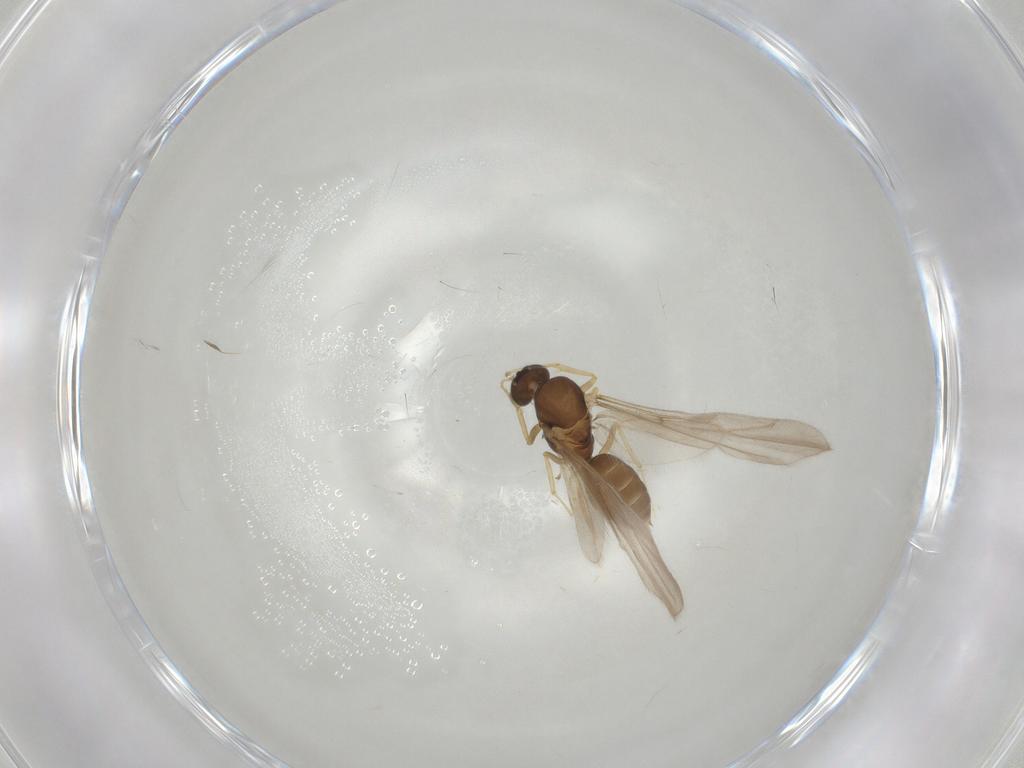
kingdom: Animalia
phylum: Arthropoda
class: Insecta
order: Hymenoptera
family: Formicidae
